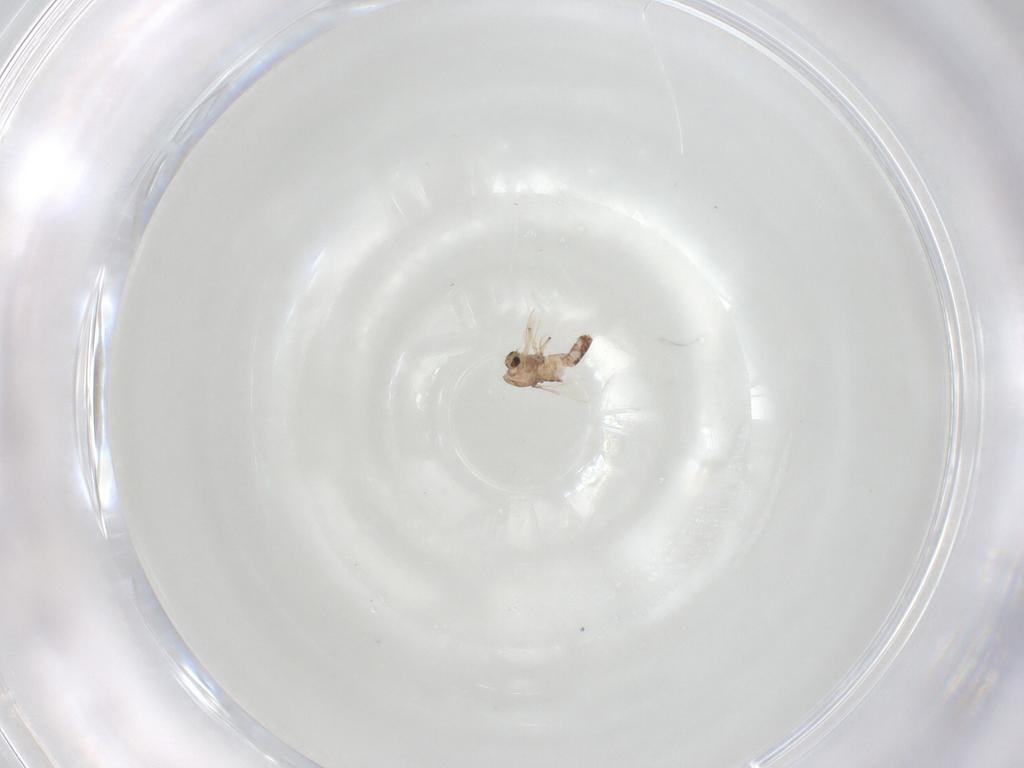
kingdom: Animalia
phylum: Arthropoda
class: Insecta
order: Diptera
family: Chironomidae
